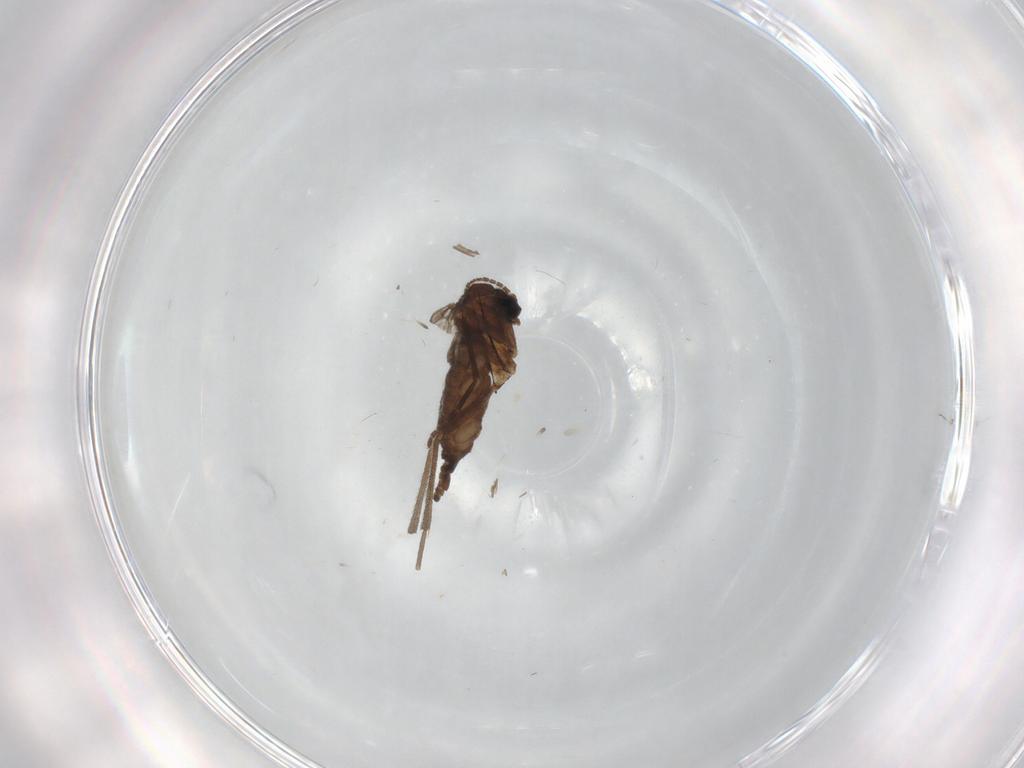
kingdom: Animalia
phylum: Arthropoda
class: Insecta
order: Diptera
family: Sciaridae
